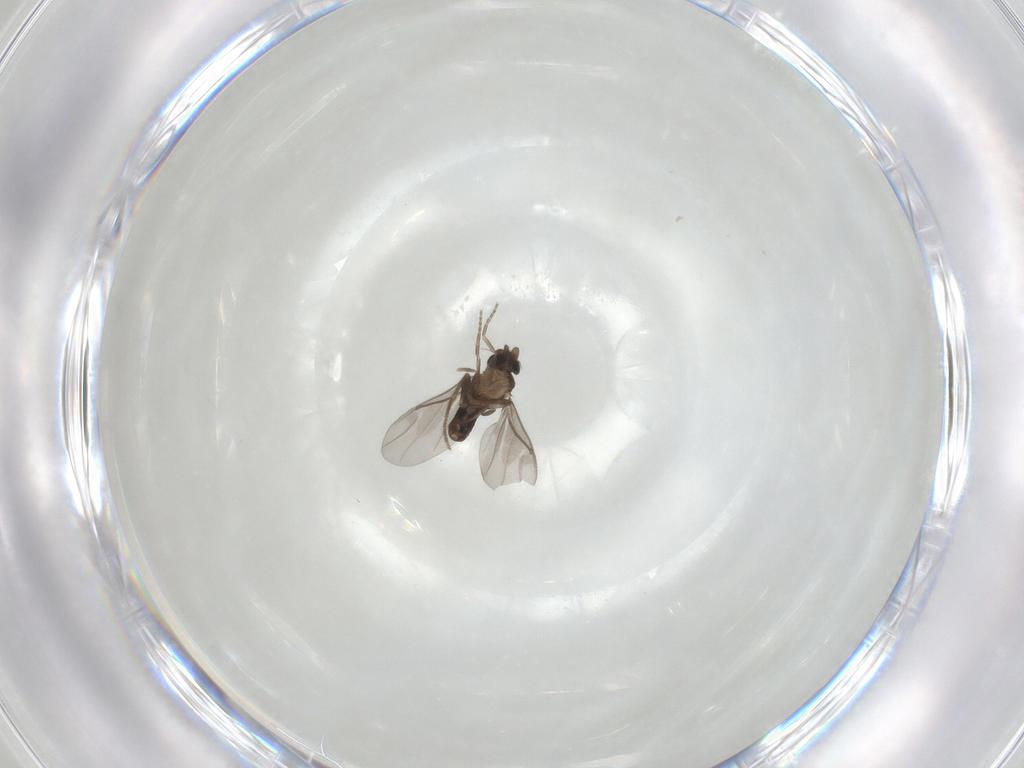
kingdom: Animalia
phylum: Arthropoda
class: Insecta
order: Diptera
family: Phoridae
